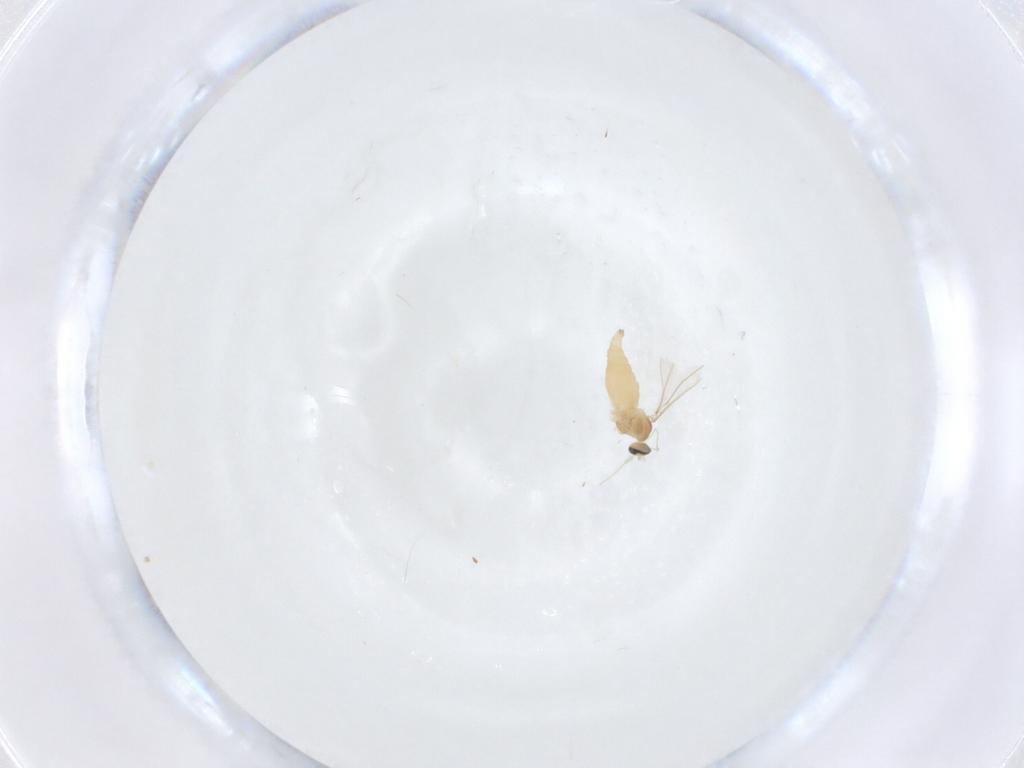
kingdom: Animalia
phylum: Arthropoda
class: Insecta
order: Diptera
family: Cecidomyiidae
